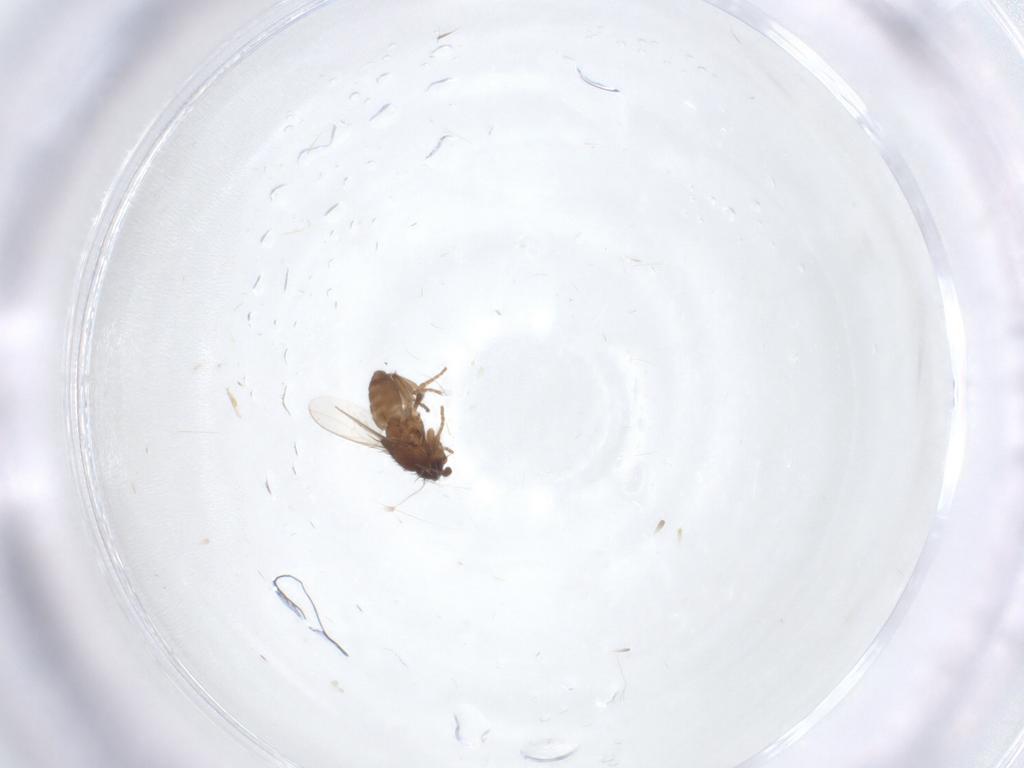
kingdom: Animalia
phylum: Arthropoda
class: Insecta
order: Diptera
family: Sphaeroceridae
